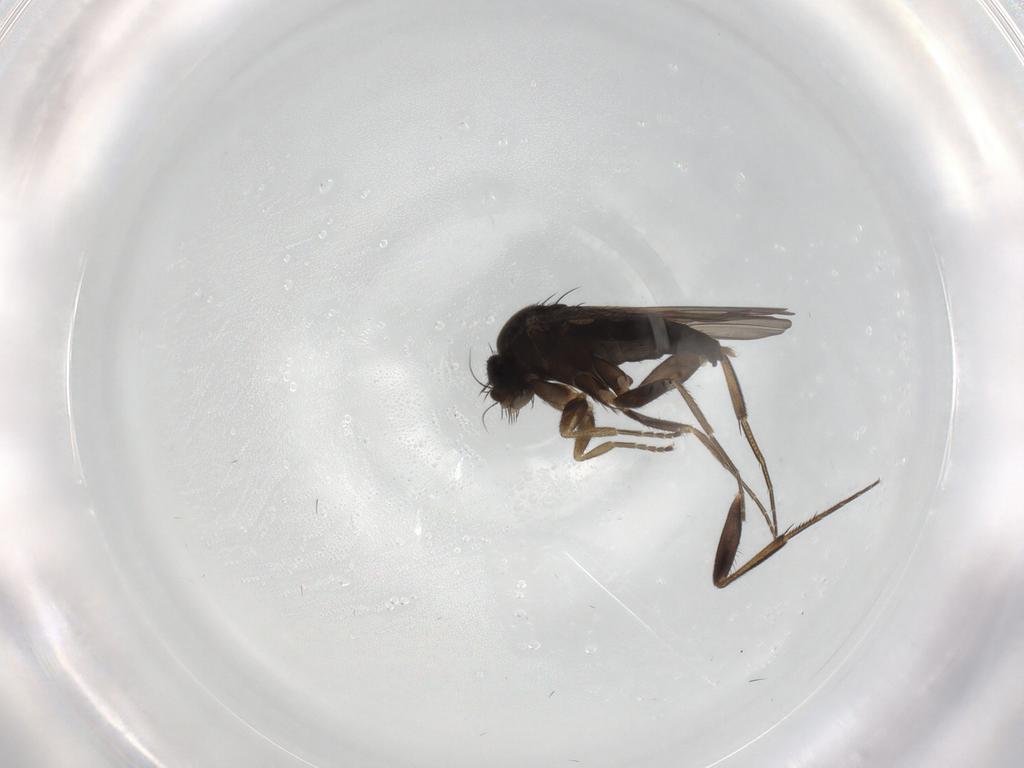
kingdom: Animalia
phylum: Arthropoda
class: Insecta
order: Diptera
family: Phoridae
